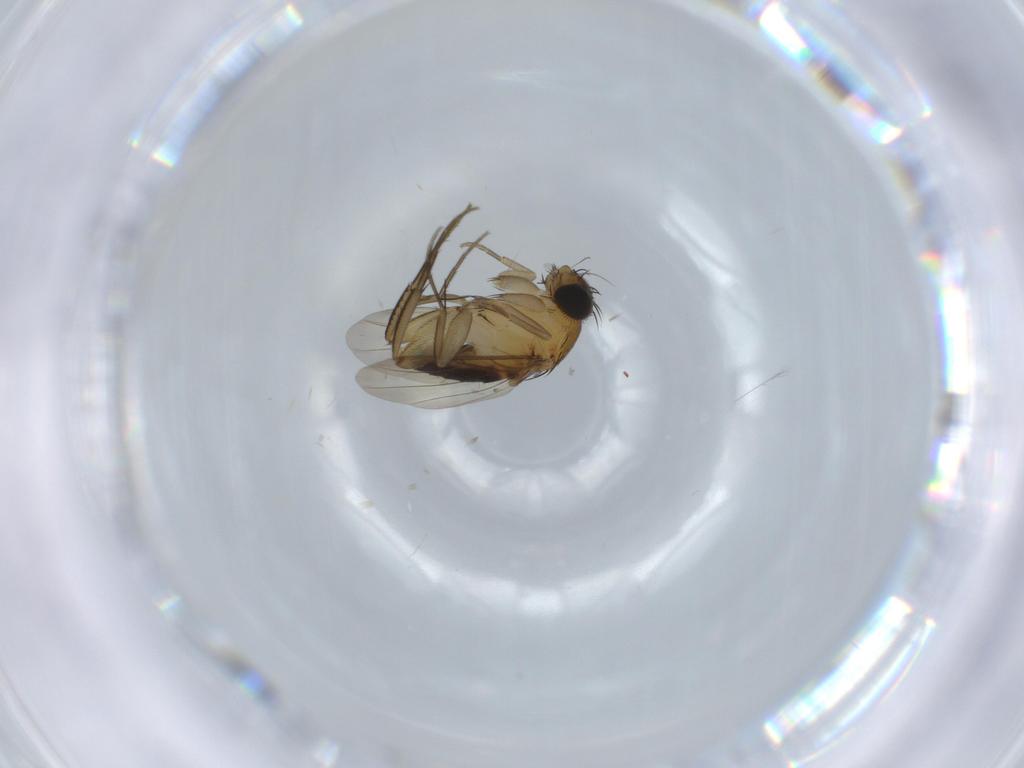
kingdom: Animalia
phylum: Arthropoda
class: Insecta
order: Diptera
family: Phoridae
